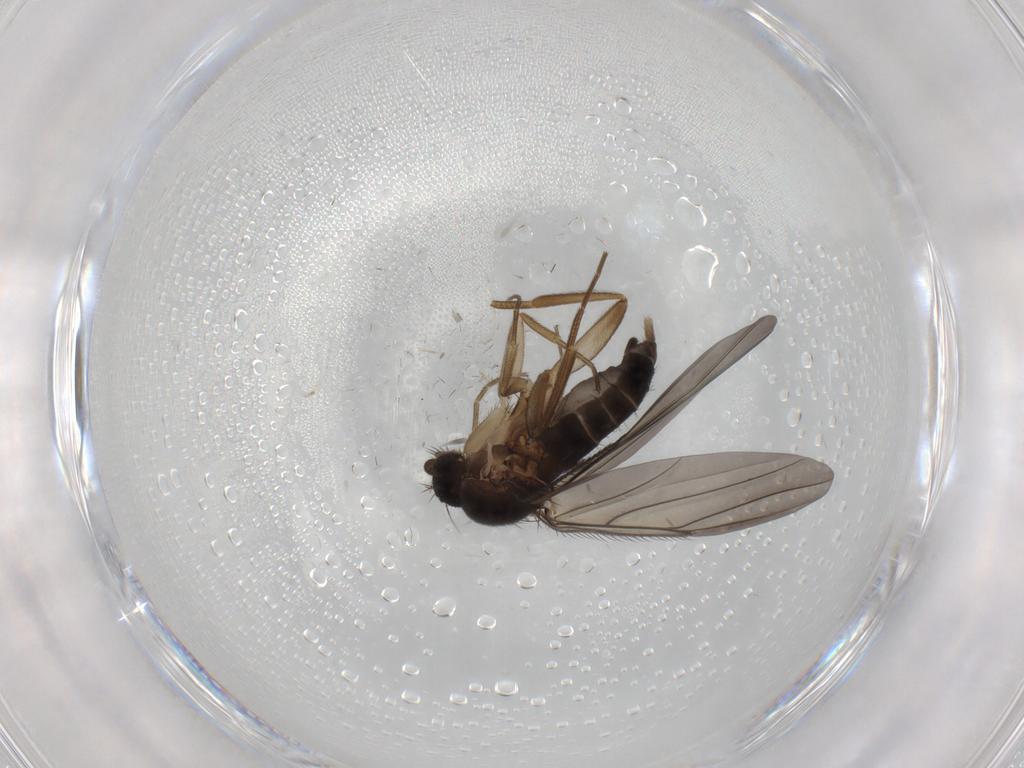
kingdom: Animalia
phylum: Arthropoda
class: Insecta
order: Diptera
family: Phoridae
